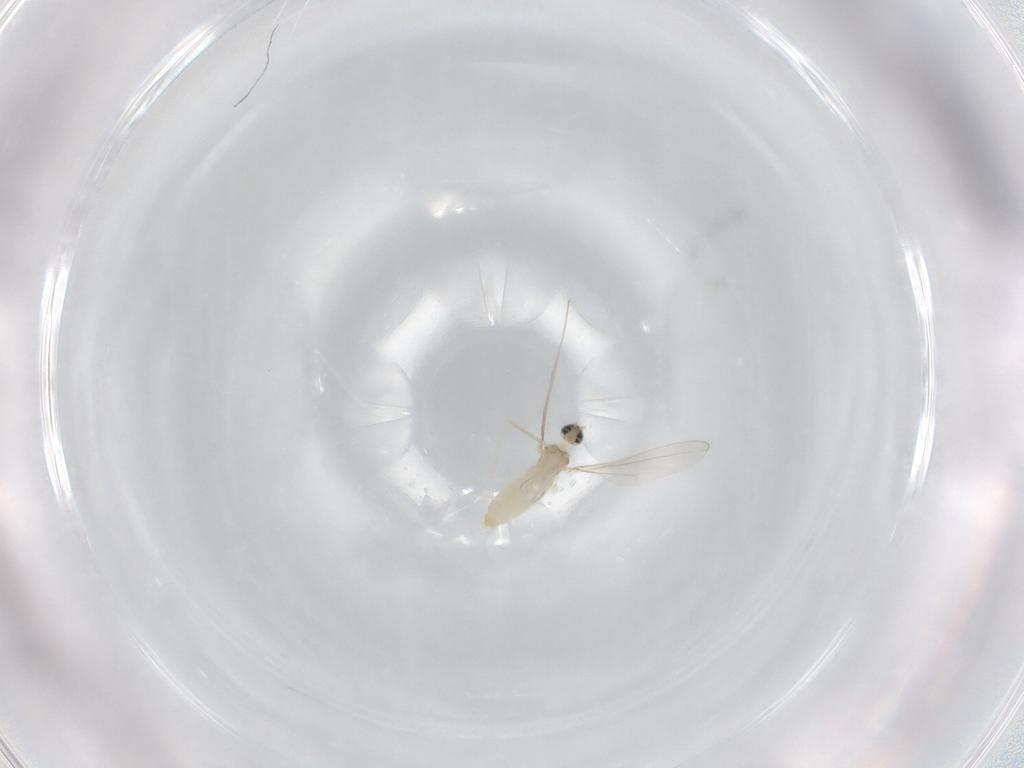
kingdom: Animalia
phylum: Arthropoda
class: Insecta
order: Diptera
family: Cecidomyiidae
